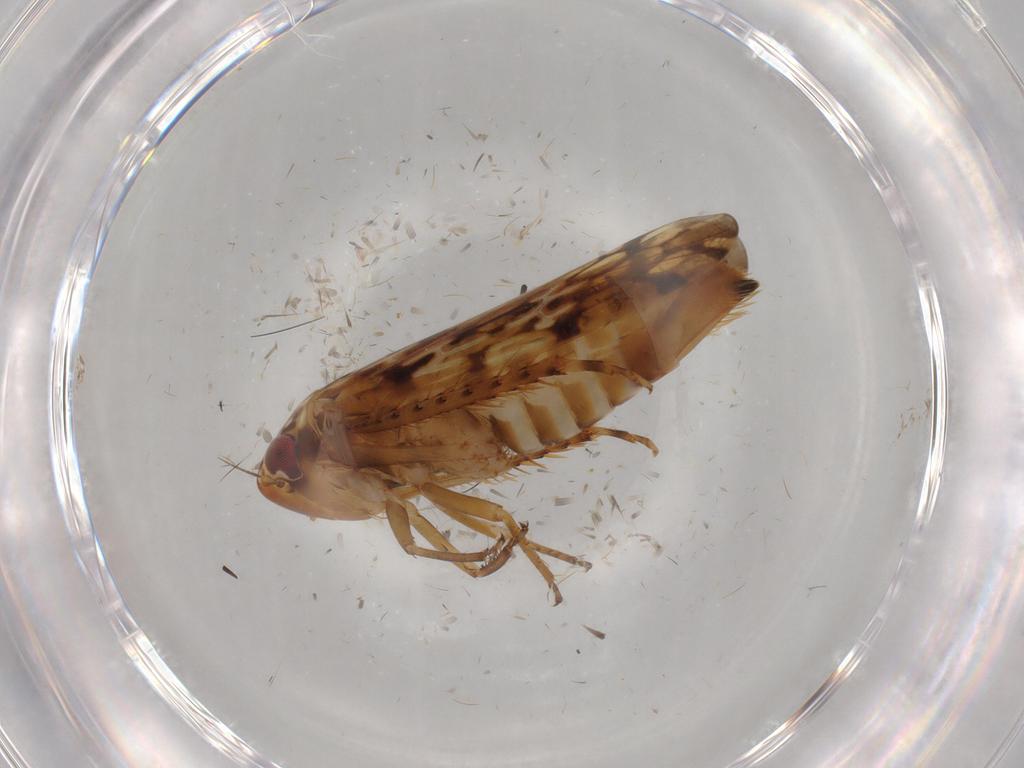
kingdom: Animalia
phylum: Arthropoda
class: Insecta
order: Hemiptera
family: Cicadellidae
